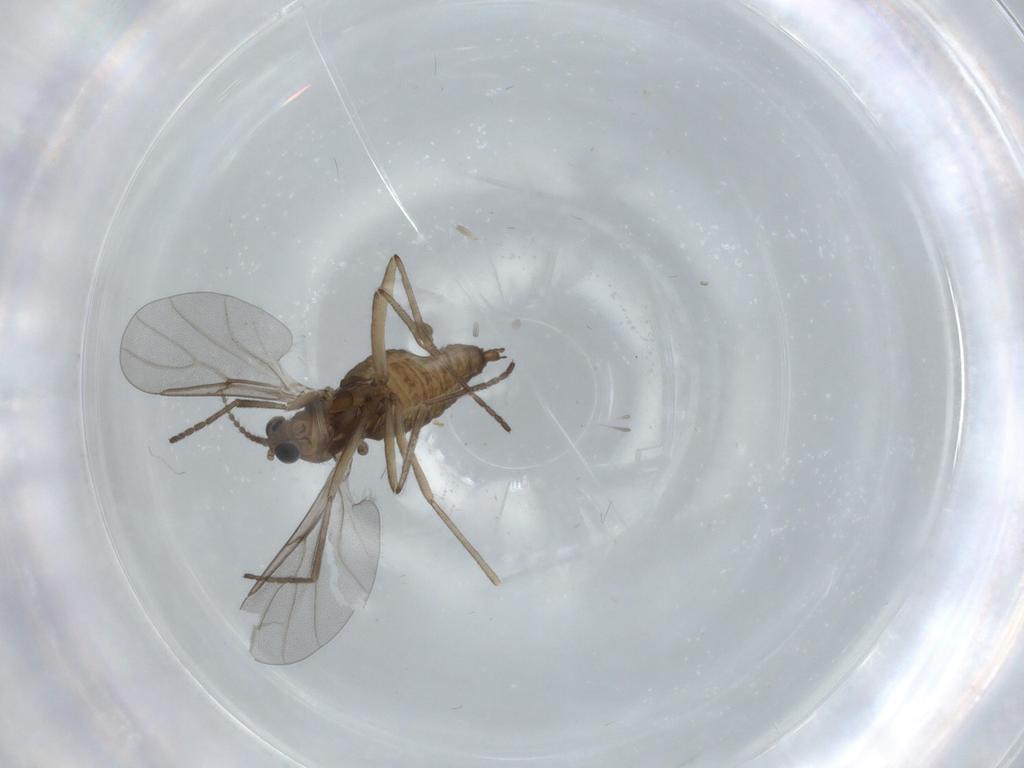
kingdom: Animalia
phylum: Arthropoda
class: Insecta
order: Diptera
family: Cecidomyiidae
